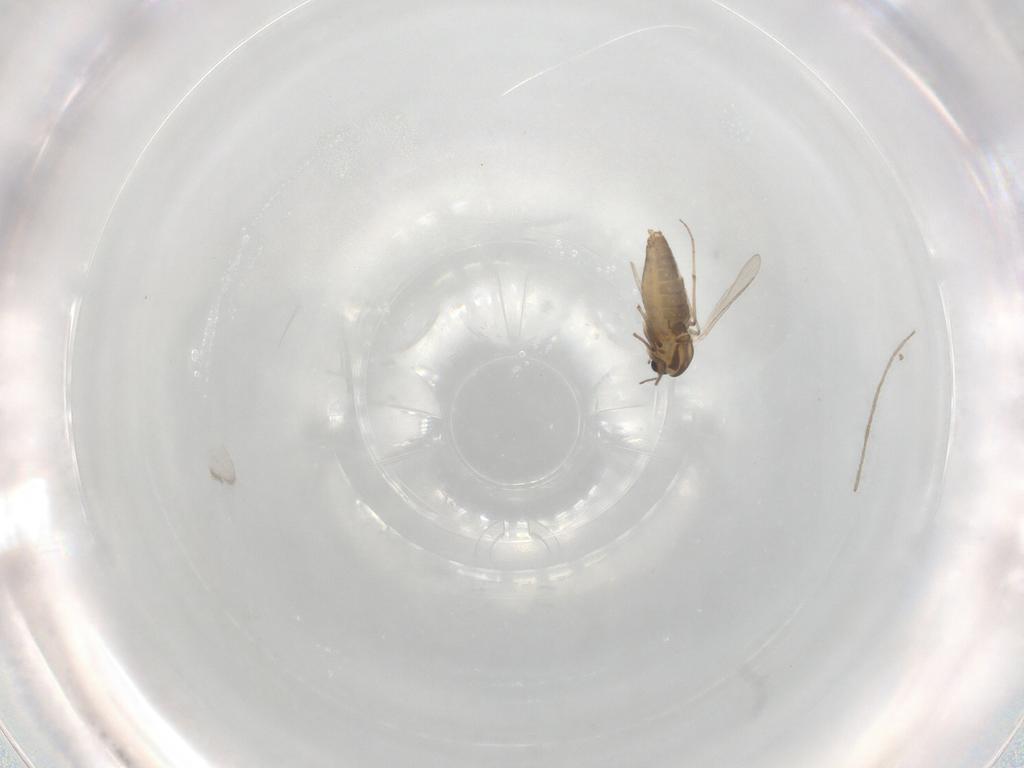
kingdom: Animalia
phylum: Arthropoda
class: Insecta
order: Diptera
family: Chironomidae
